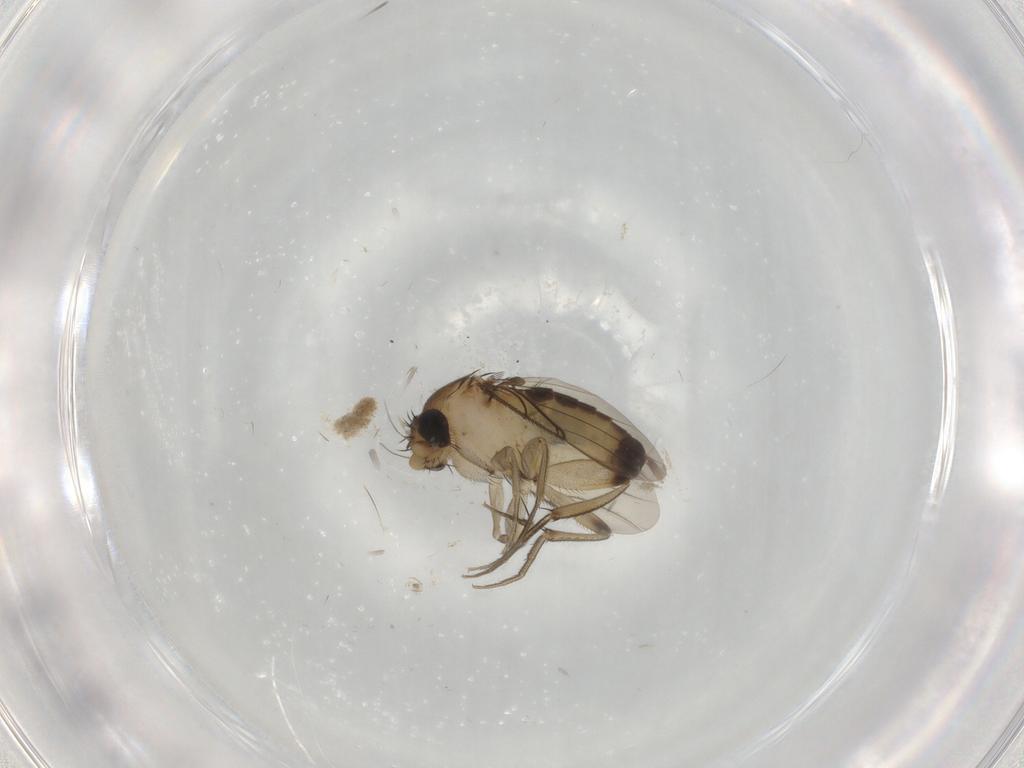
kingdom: Animalia
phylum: Arthropoda
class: Insecta
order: Diptera
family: Phoridae
